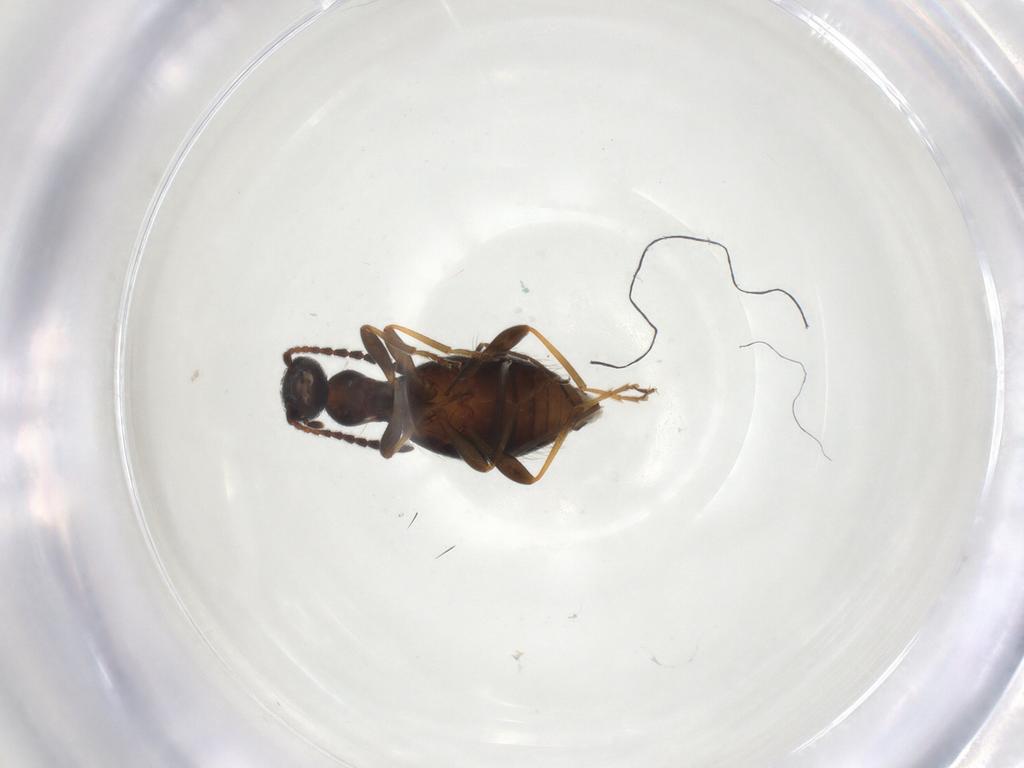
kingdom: Animalia
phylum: Arthropoda
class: Insecta
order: Coleoptera
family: Anthicidae
